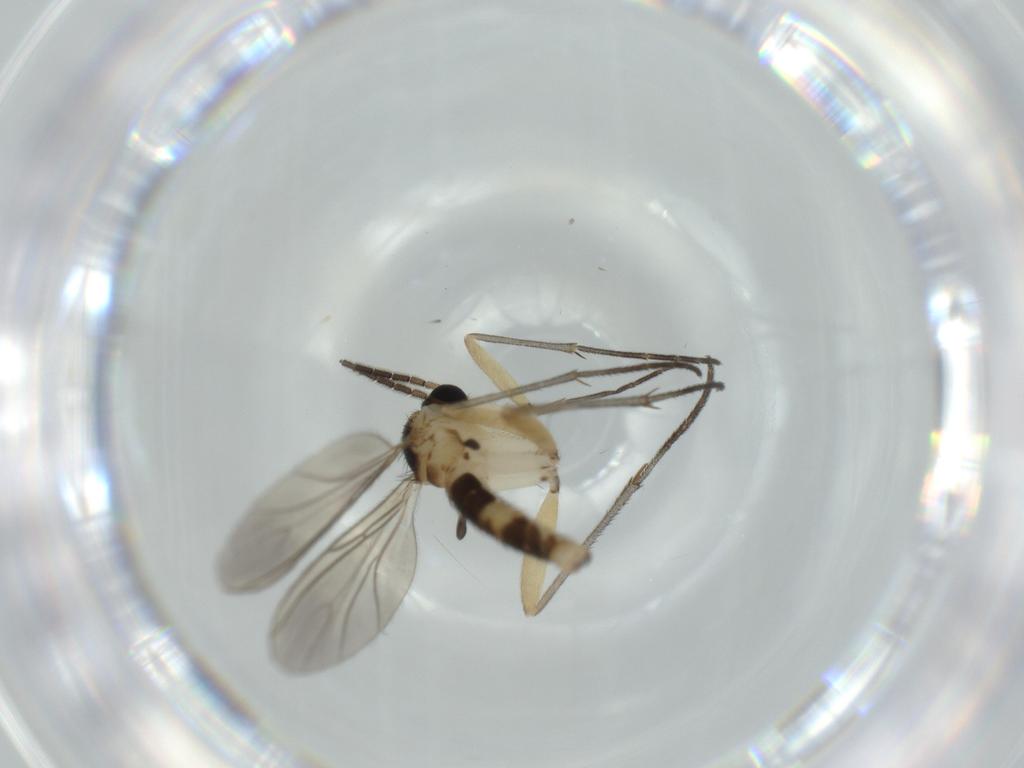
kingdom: Animalia
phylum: Arthropoda
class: Insecta
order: Diptera
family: Sciaridae
